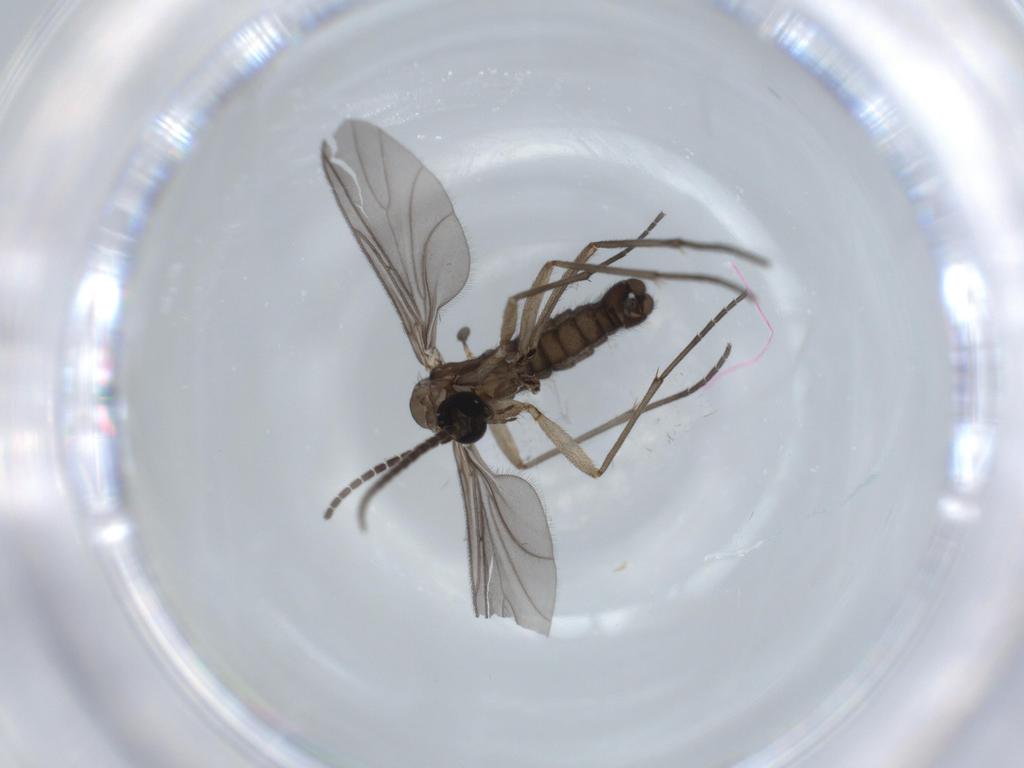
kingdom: Animalia
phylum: Arthropoda
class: Insecta
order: Diptera
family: Sciaridae
